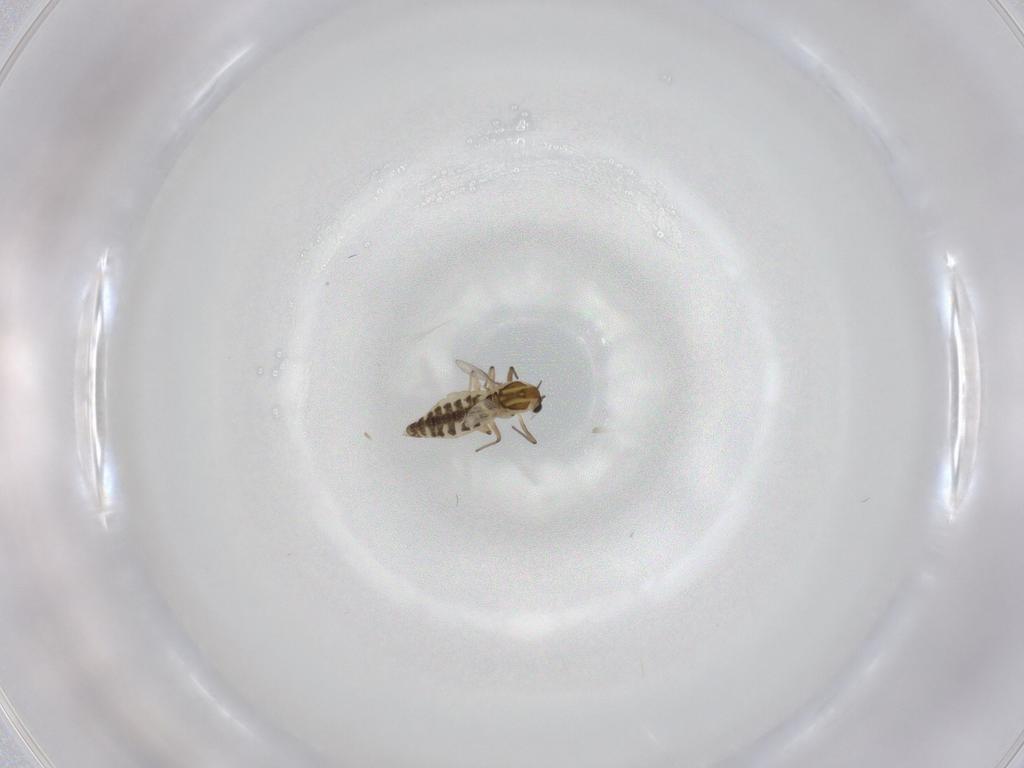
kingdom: Animalia
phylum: Arthropoda
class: Insecta
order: Diptera
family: Chironomidae
